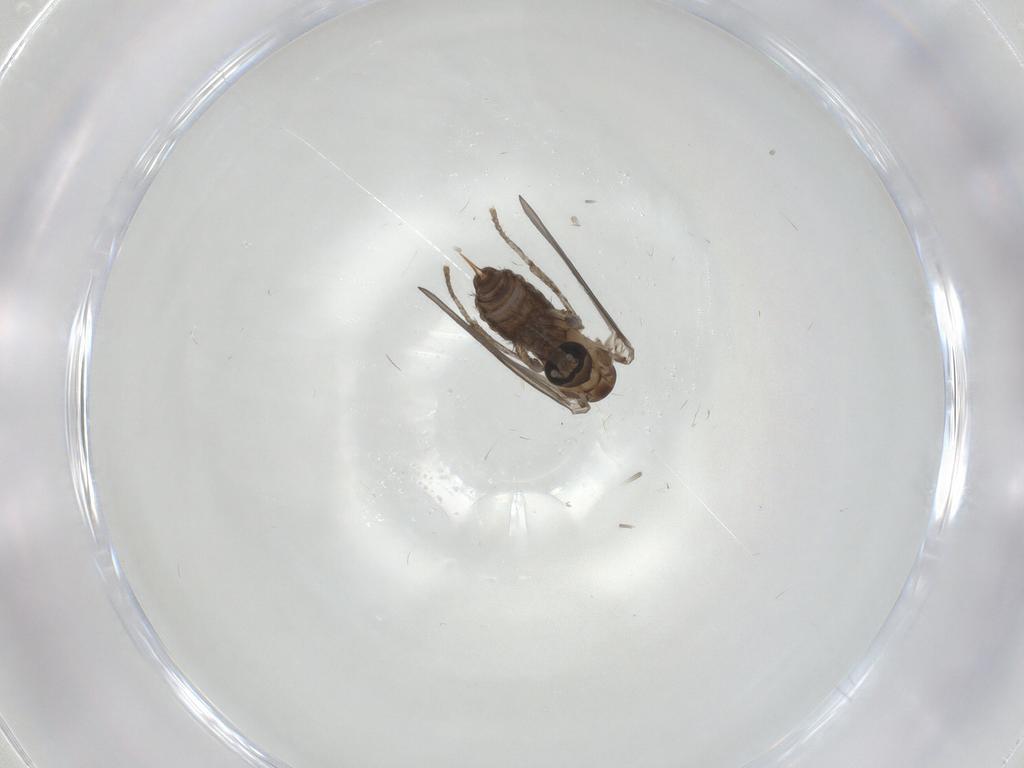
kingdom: Animalia
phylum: Arthropoda
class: Insecta
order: Diptera
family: Psychodidae
